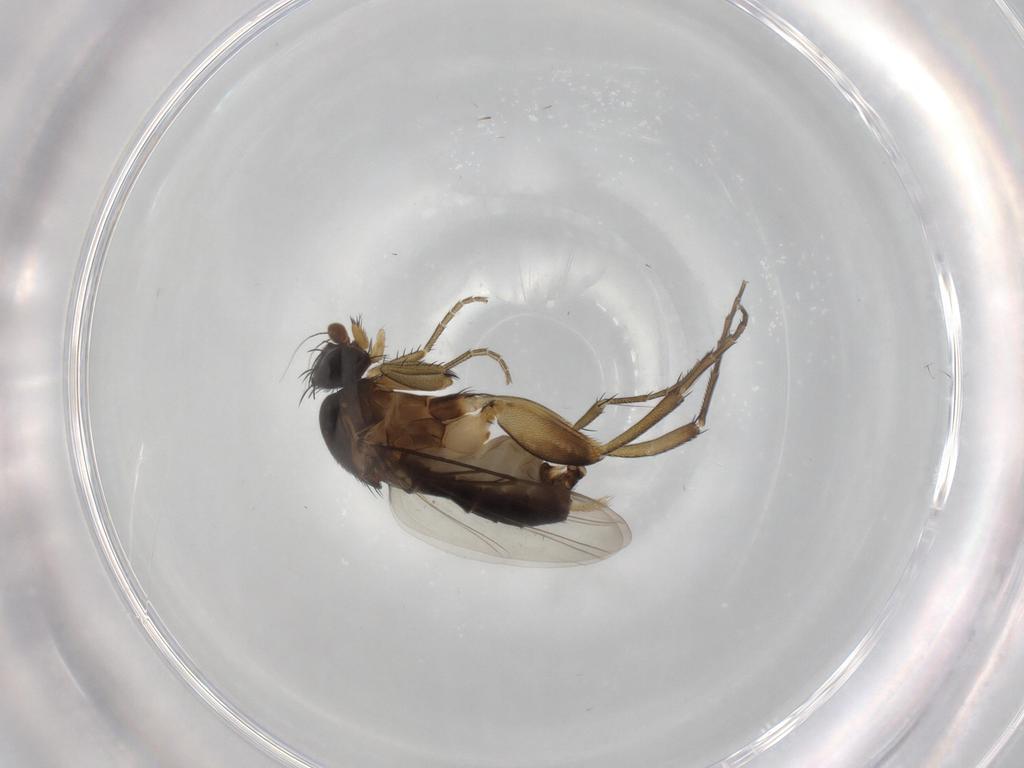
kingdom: Animalia
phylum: Arthropoda
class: Insecta
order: Diptera
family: Phoridae
